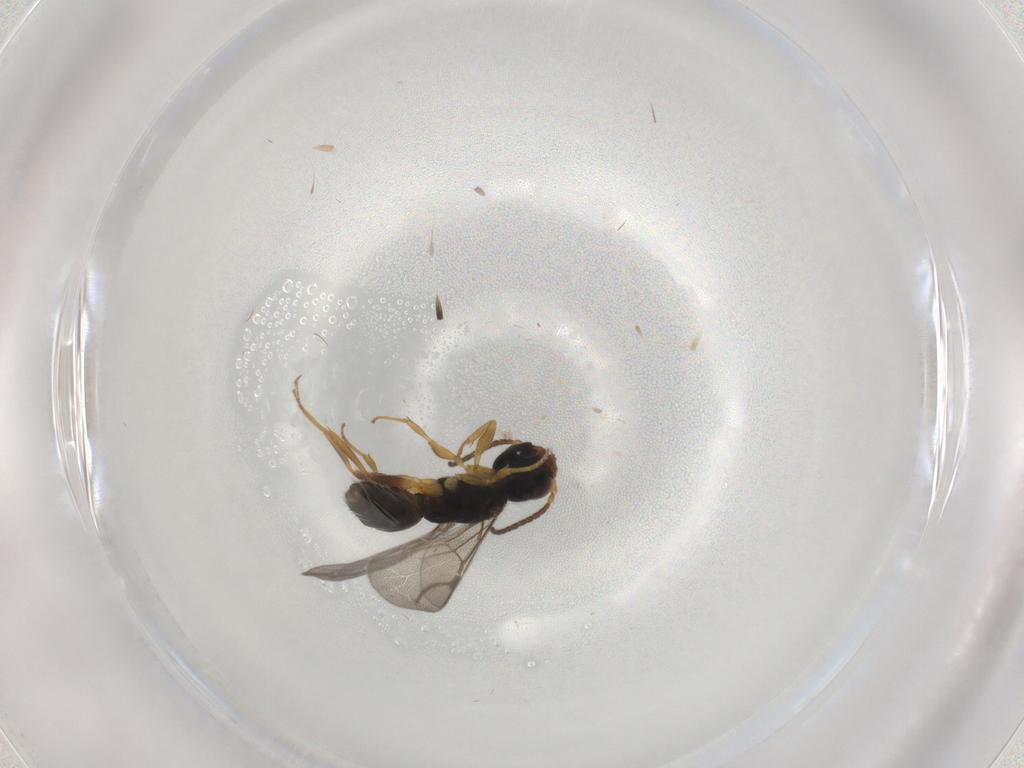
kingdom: Animalia
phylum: Arthropoda
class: Insecta
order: Hymenoptera
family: Bethylidae
